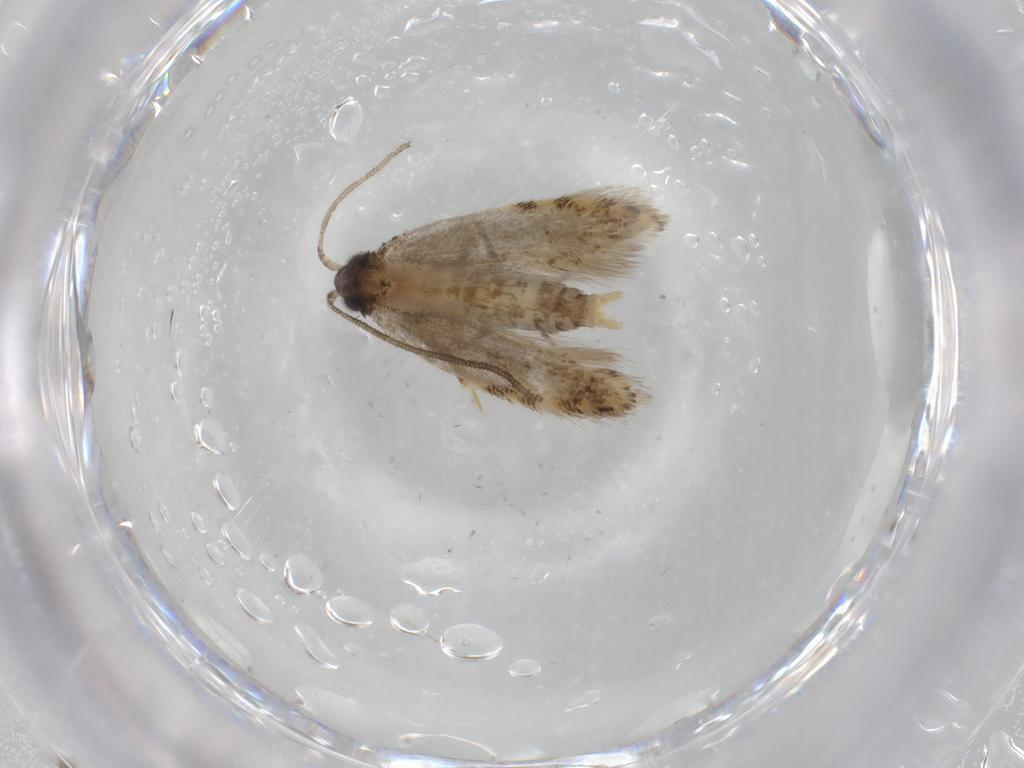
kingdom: Animalia
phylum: Arthropoda
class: Insecta
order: Lepidoptera
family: Tineidae
